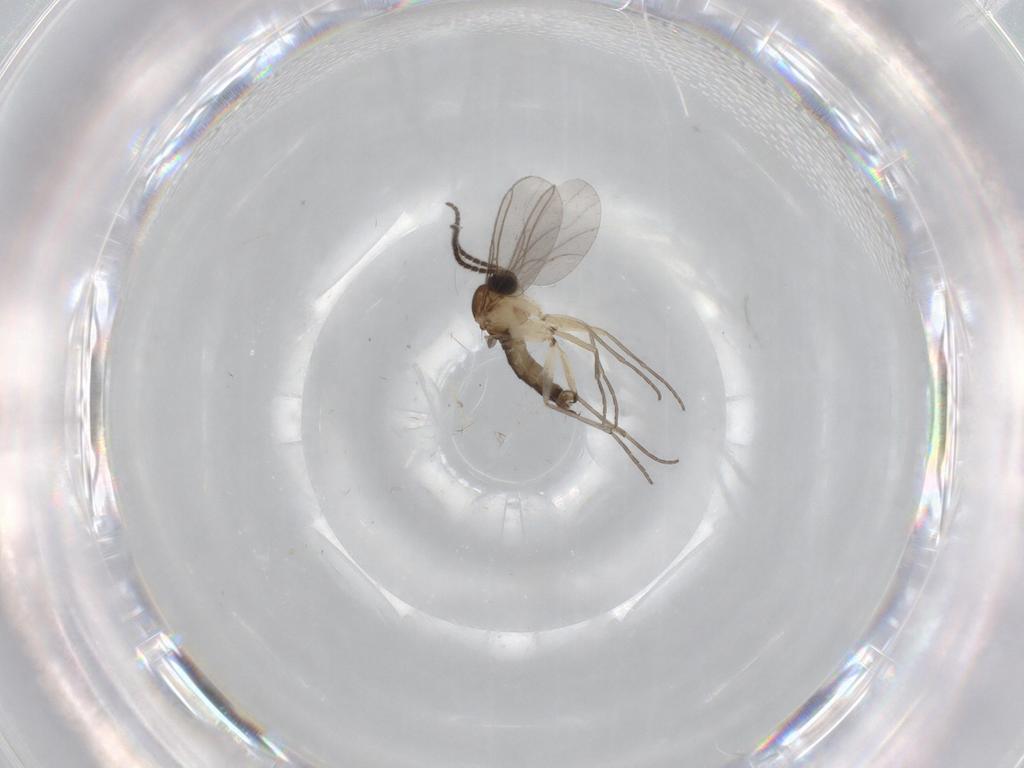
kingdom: Animalia
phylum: Arthropoda
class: Insecta
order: Diptera
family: Sciaridae
